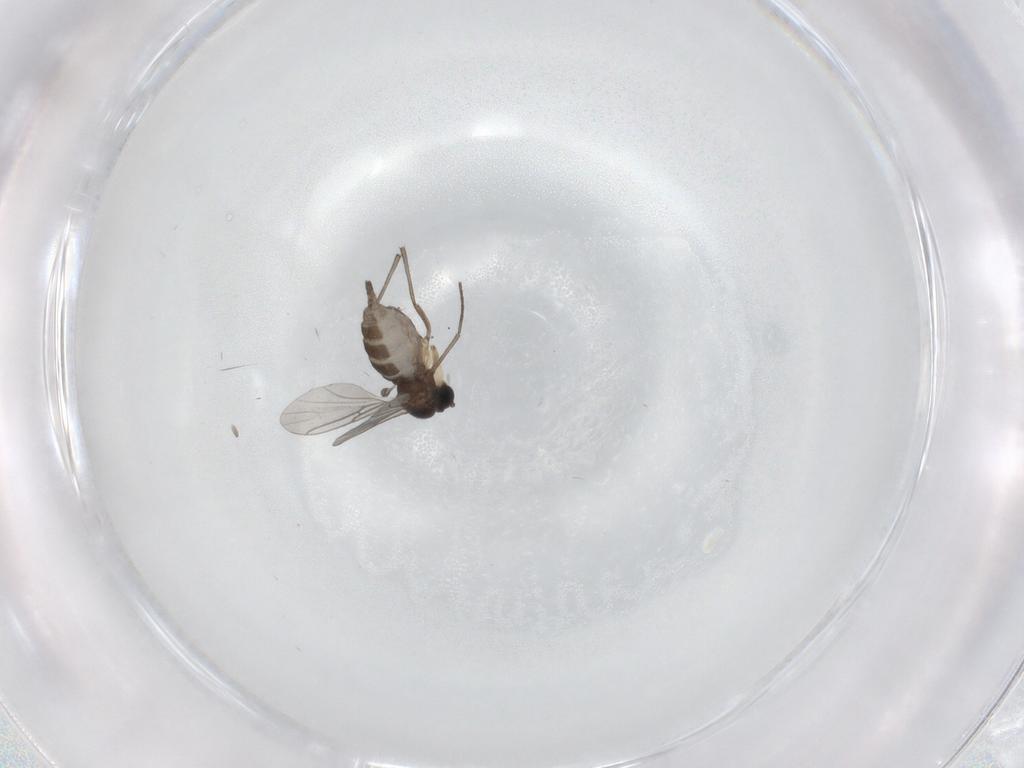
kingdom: Animalia
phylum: Arthropoda
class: Insecta
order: Diptera
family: Sciaridae
